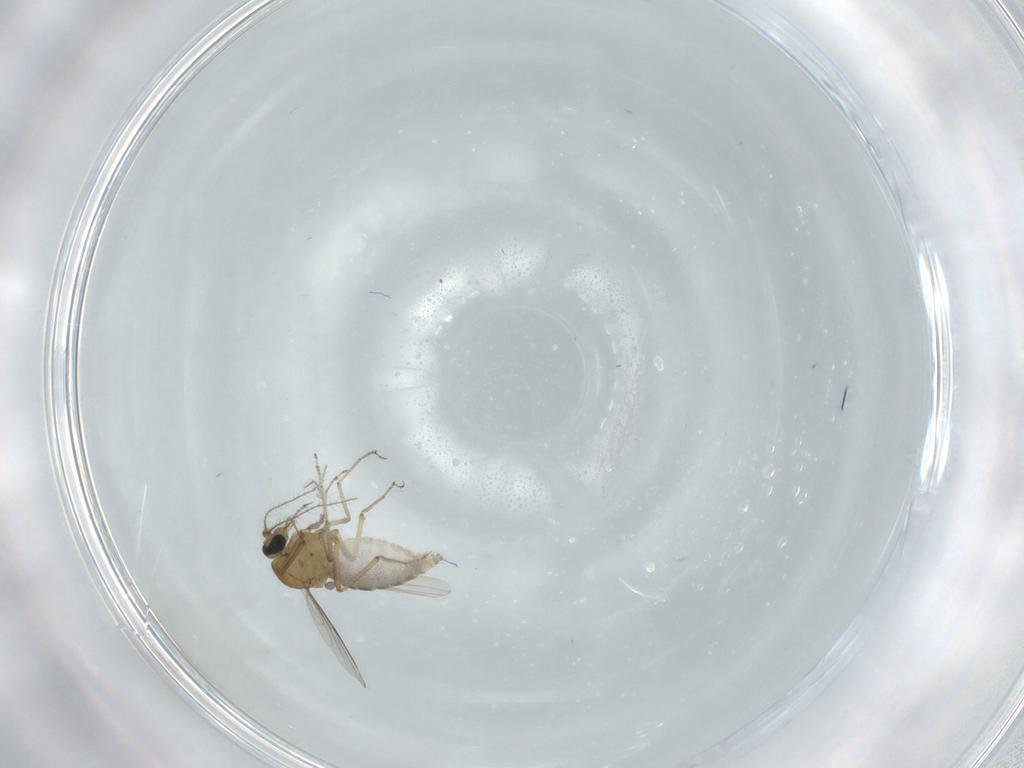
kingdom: Animalia
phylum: Arthropoda
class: Insecta
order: Diptera
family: Ceratopogonidae
